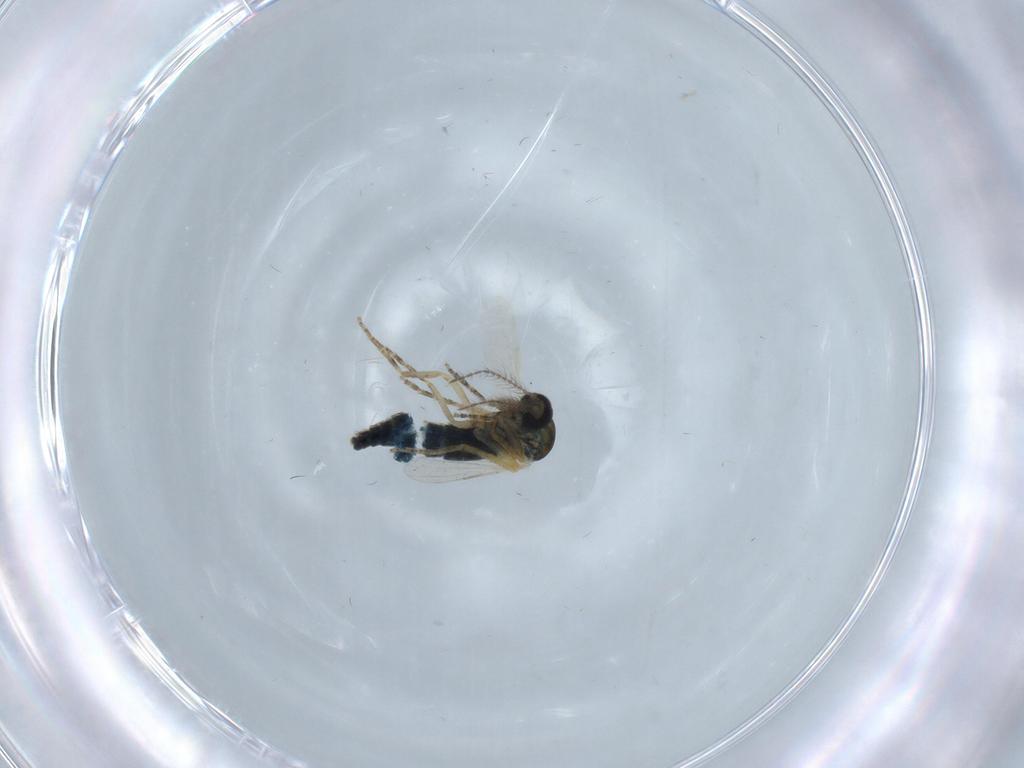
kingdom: Animalia
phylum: Arthropoda
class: Insecta
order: Diptera
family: Ceratopogonidae
